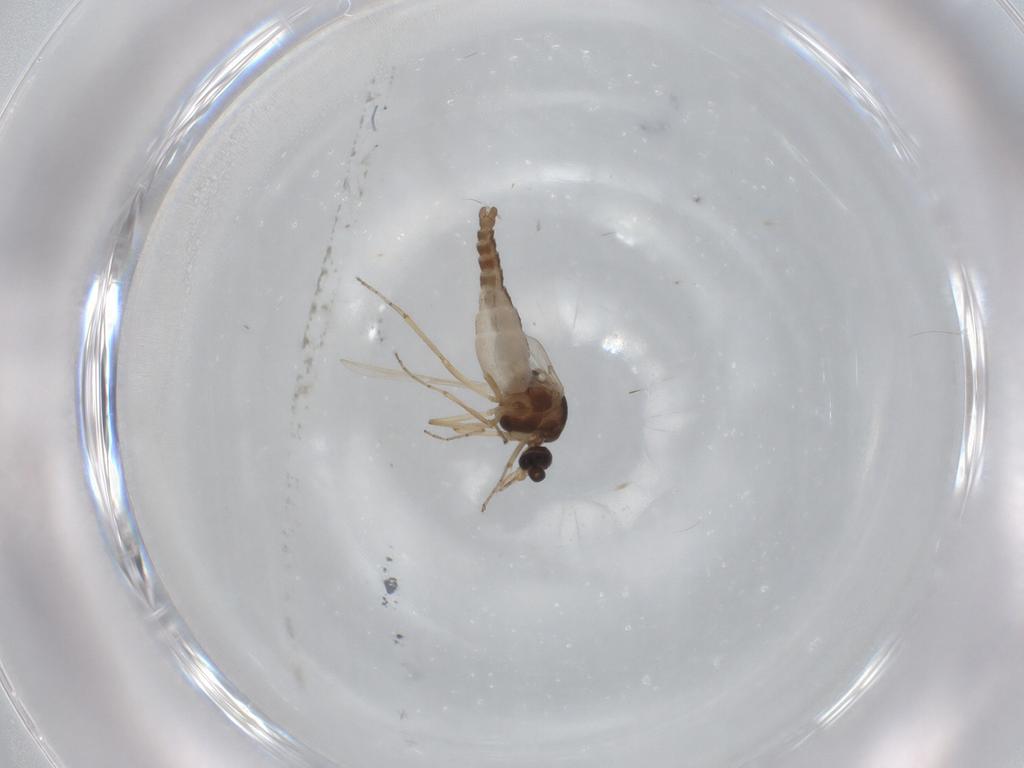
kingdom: Animalia
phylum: Arthropoda
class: Insecta
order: Diptera
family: Ceratopogonidae
